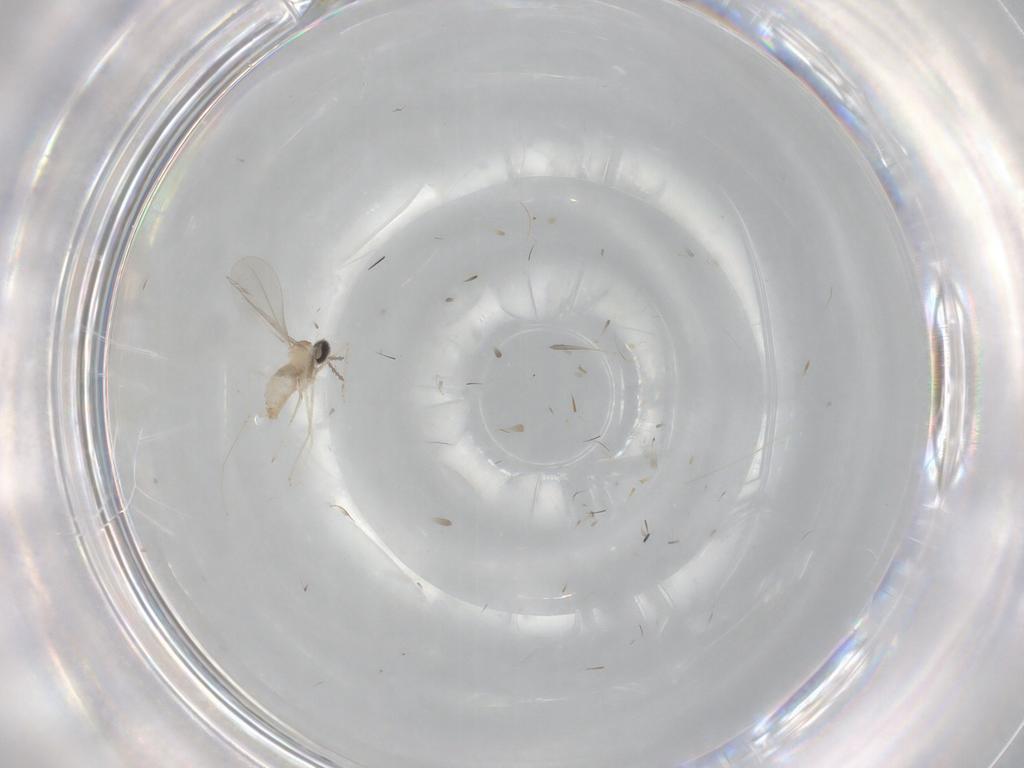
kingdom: Animalia
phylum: Arthropoda
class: Insecta
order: Diptera
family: Cecidomyiidae
